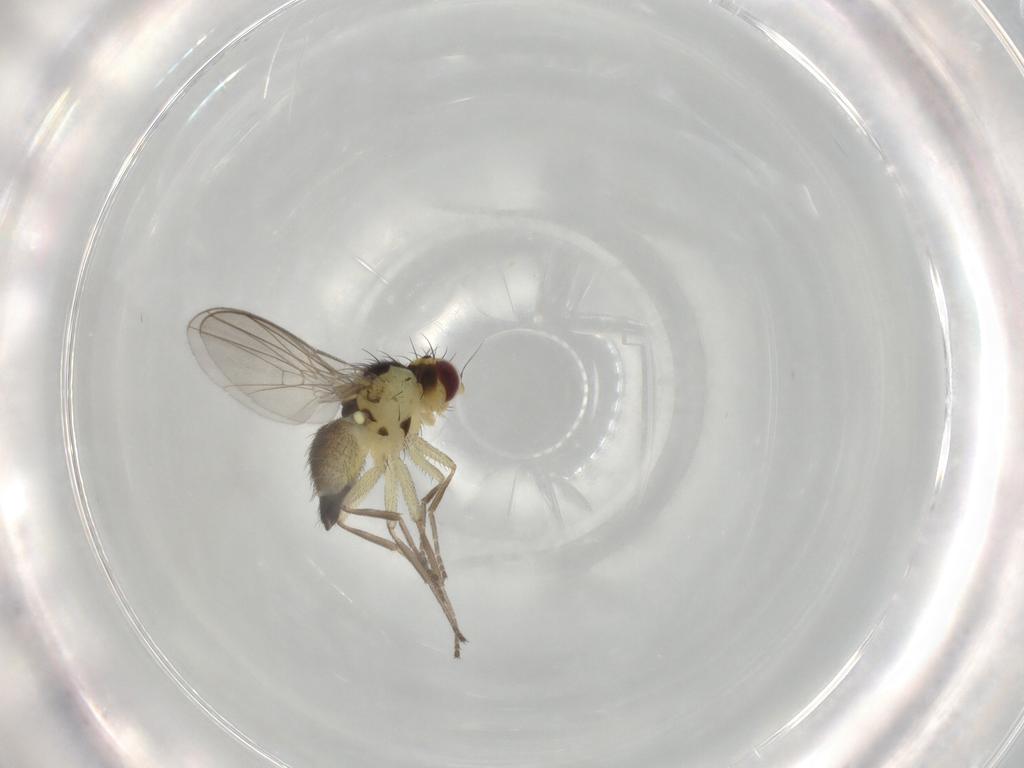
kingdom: Animalia
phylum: Arthropoda
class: Insecta
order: Diptera
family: Agromyzidae
